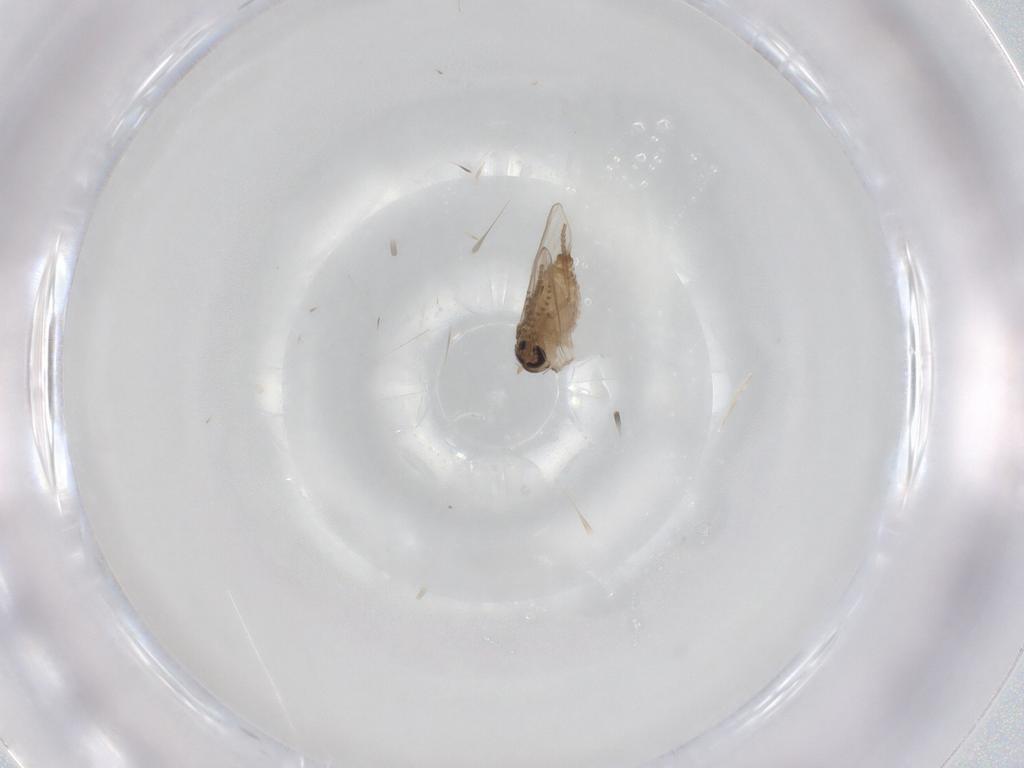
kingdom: Animalia
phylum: Arthropoda
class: Insecta
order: Diptera
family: Psychodidae
